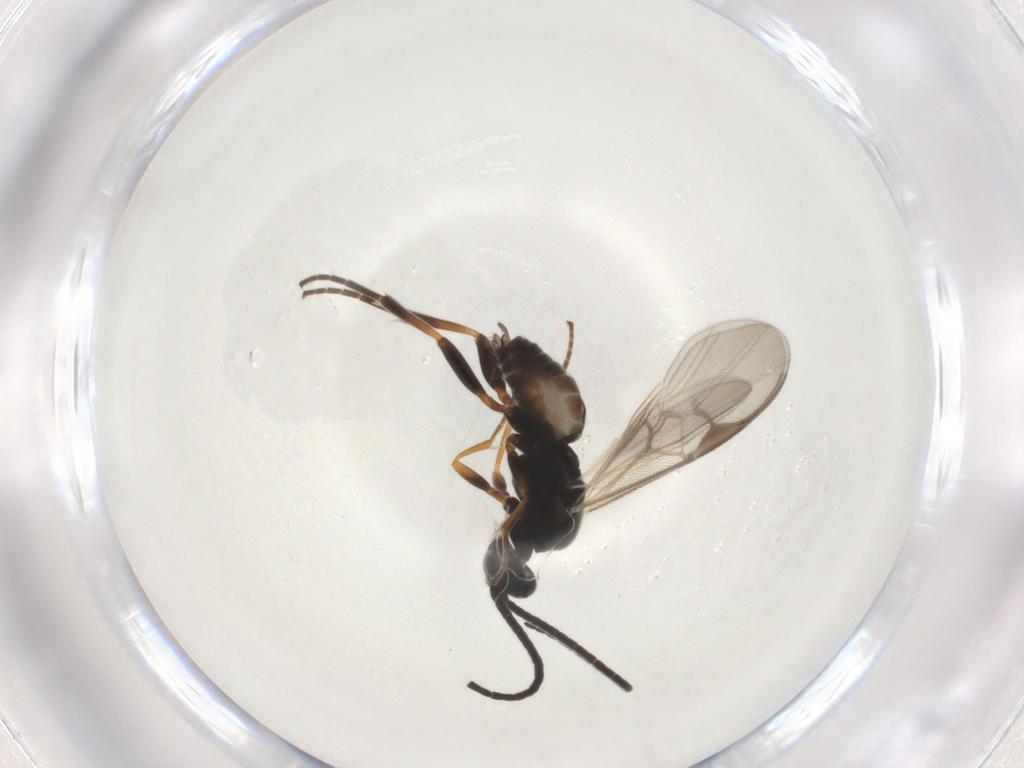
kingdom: Animalia
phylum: Arthropoda
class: Insecta
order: Hymenoptera
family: Braconidae
